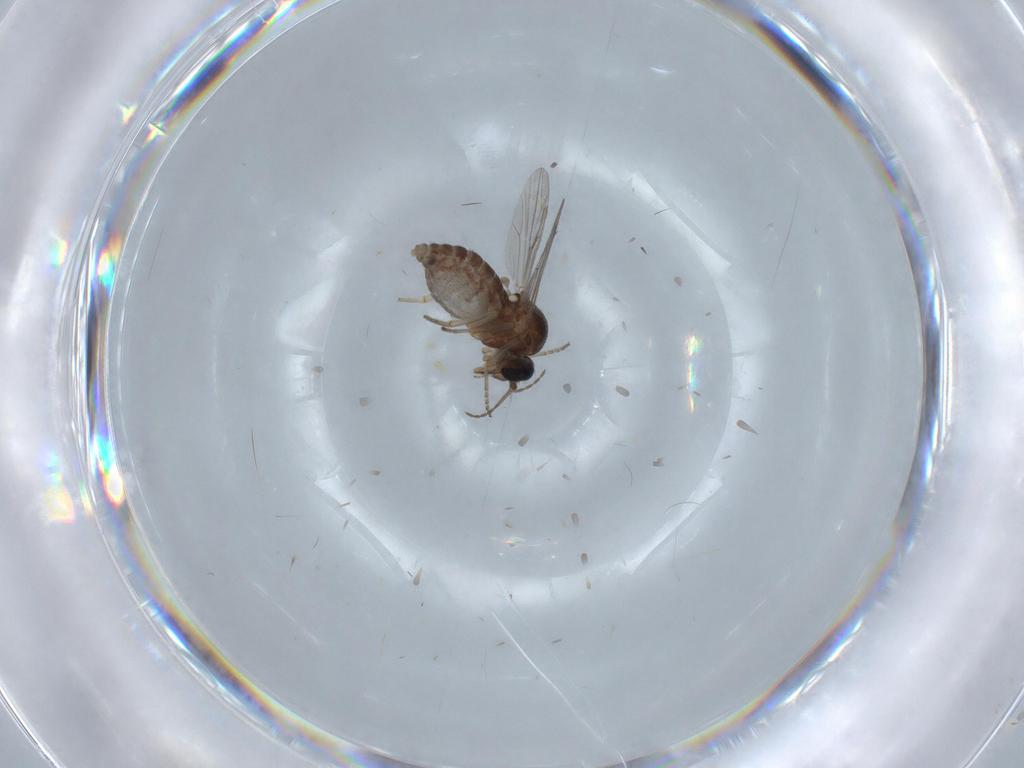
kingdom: Animalia
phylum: Arthropoda
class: Insecta
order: Diptera
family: Ceratopogonidae
